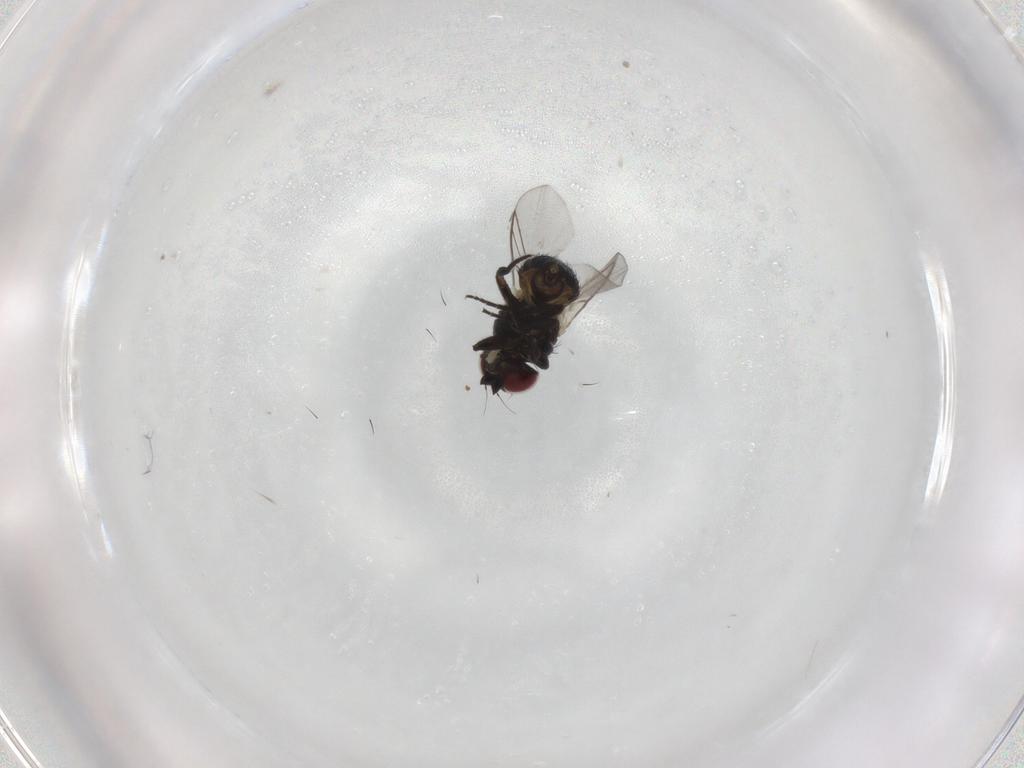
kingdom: Animalia
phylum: Arthropoda
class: Insecta
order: Diptera
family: Agromyzidae
